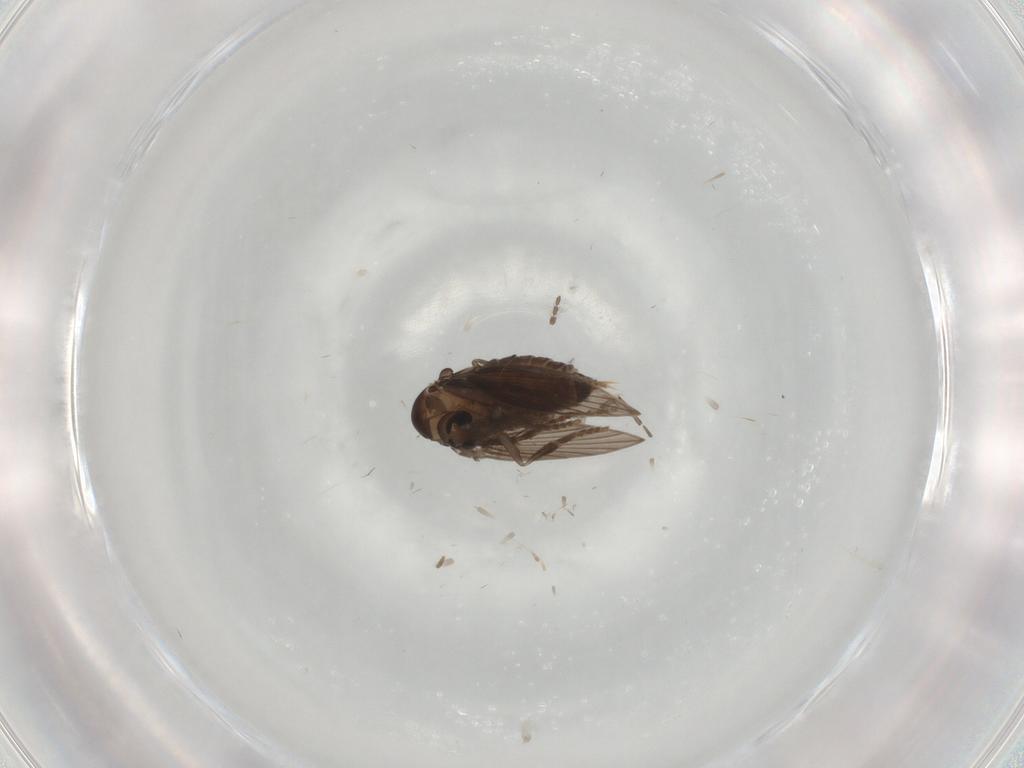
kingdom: Animalia
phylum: Arthropoda
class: Insecta
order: Diptera
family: Psychodidae
